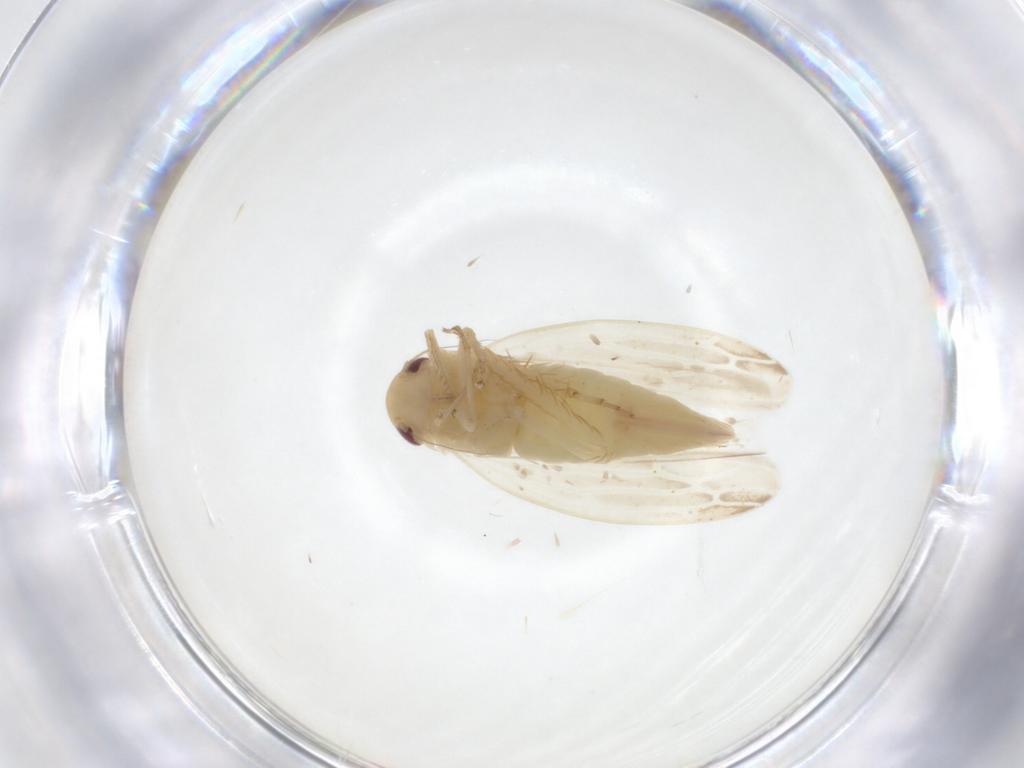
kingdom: Animalia
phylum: Arthropoda
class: Insecta
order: Hemiptera
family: Cicadellidae
